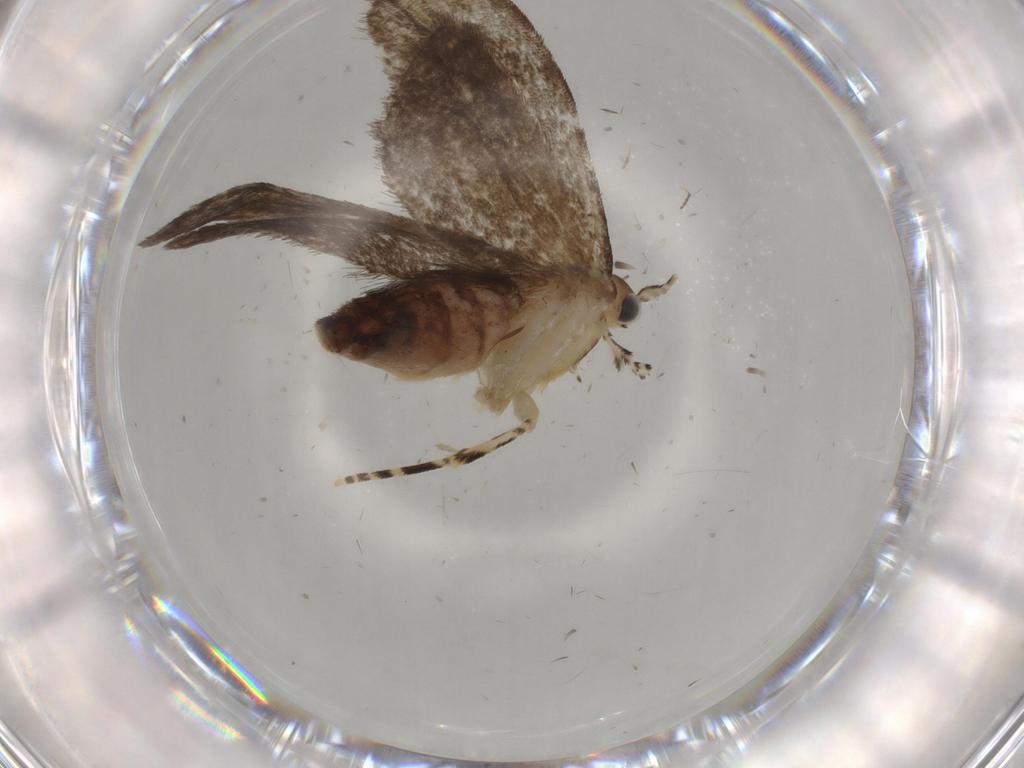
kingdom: Animalia
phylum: Arthropoda
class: Insecta
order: Lepidoptera
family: Tineidae
